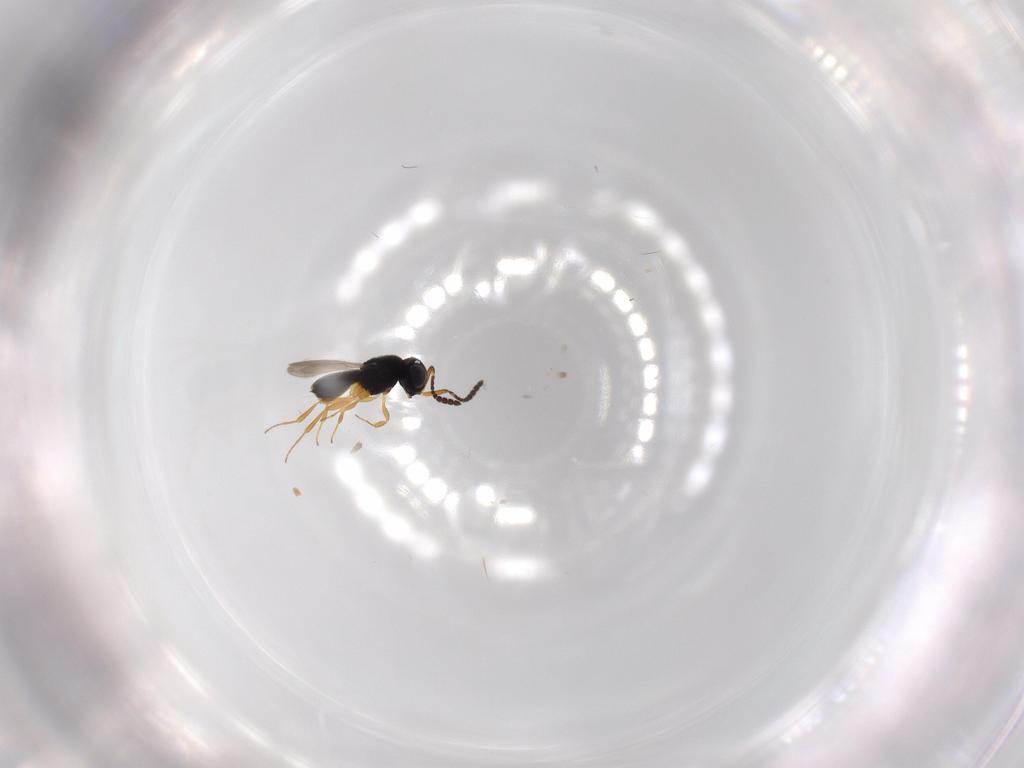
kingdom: Animalia
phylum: Arthropoda
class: Insecta
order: Hymenoptera
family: Scelionidae
